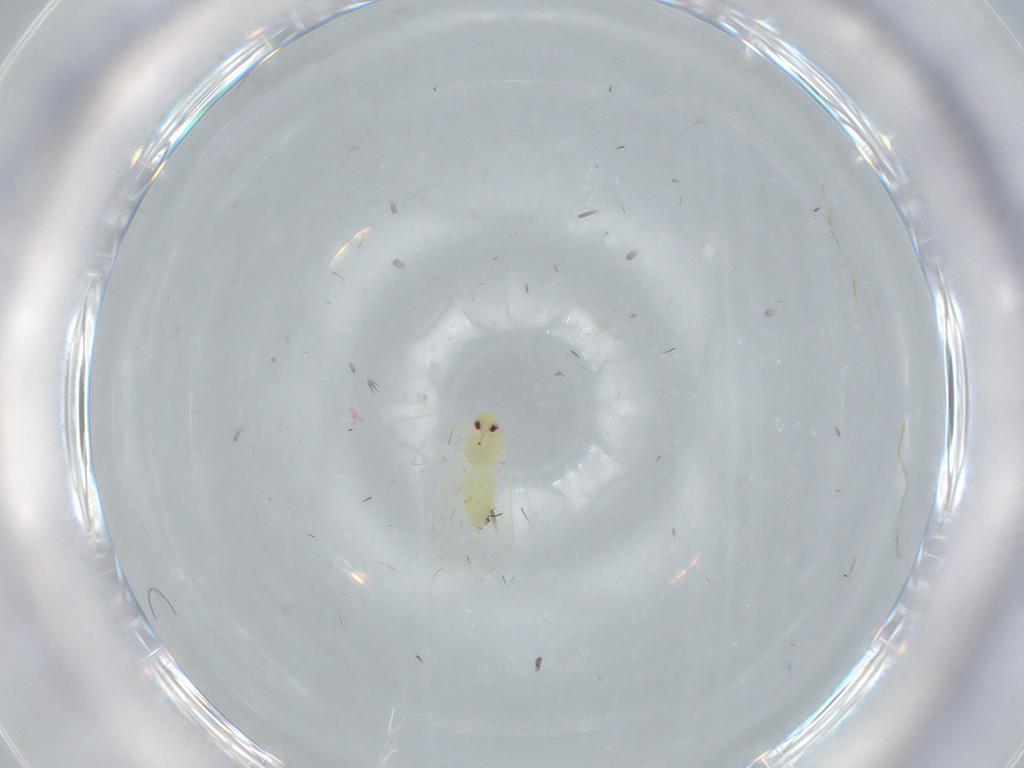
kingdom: Animalia
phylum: Arthropoda
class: Insecta
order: Hemiptera
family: Aleyrodidae
